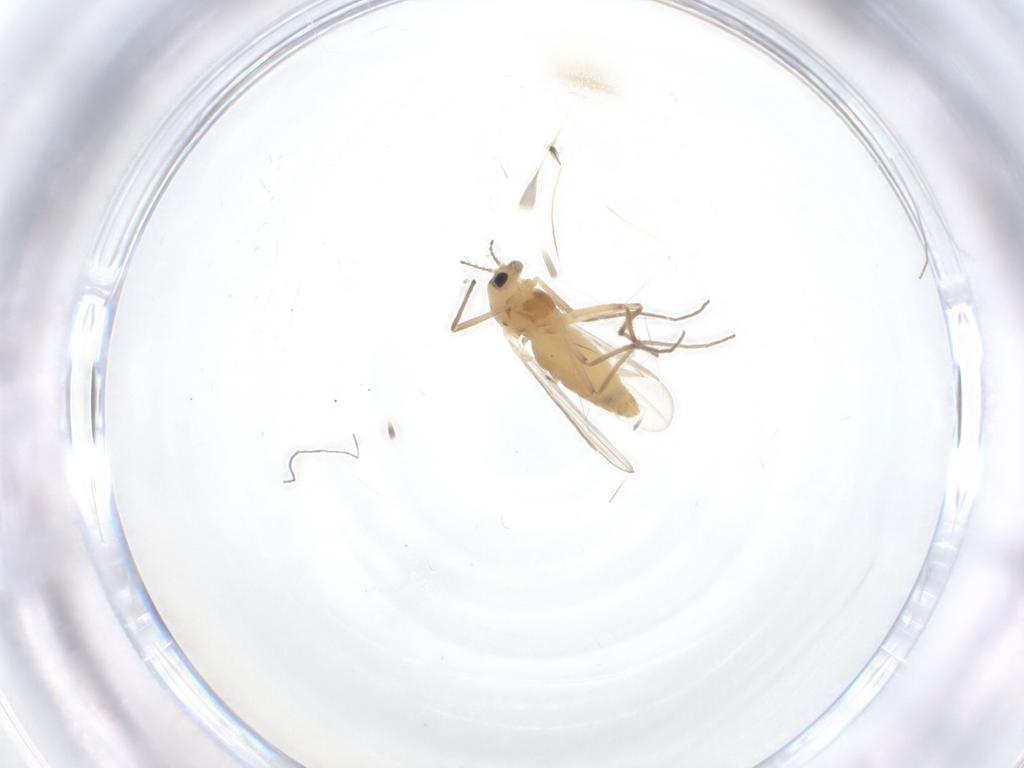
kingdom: Animalia
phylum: Arthropoda
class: Insecta
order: Diptera
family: Chironomidae
